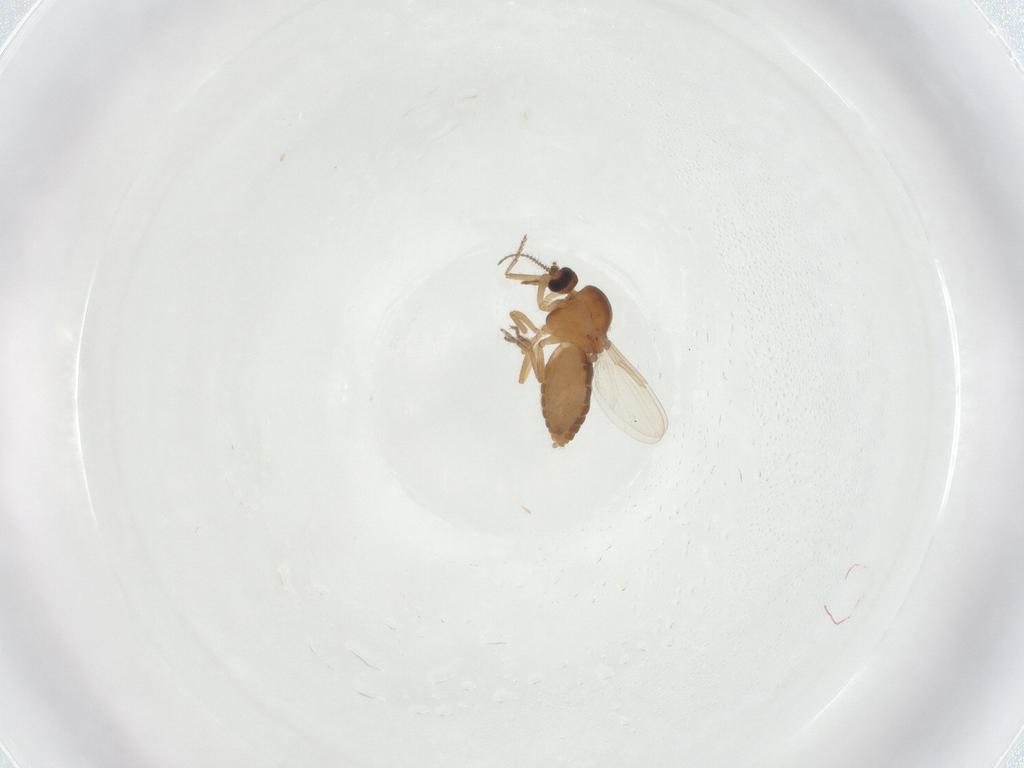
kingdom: Animalia
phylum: Arthropoda
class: Insecta
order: Diptera
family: Ceratopogonidae
